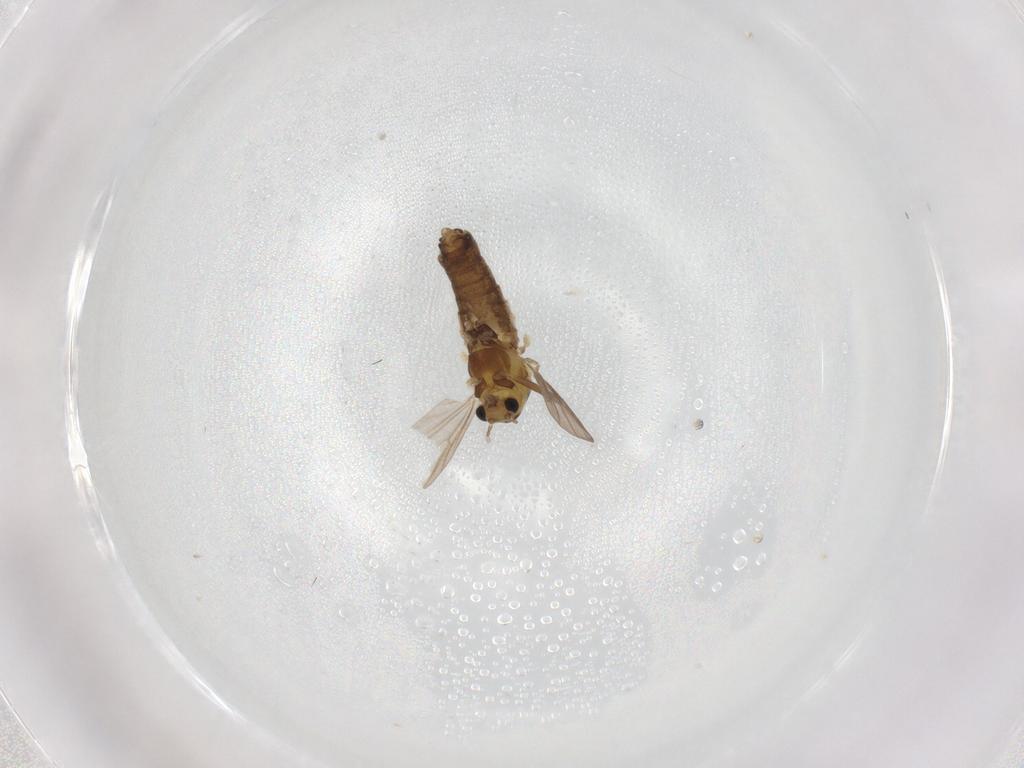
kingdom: Animalia
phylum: Arthropoda
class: Insecta
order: Diptera
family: Chironomidae
